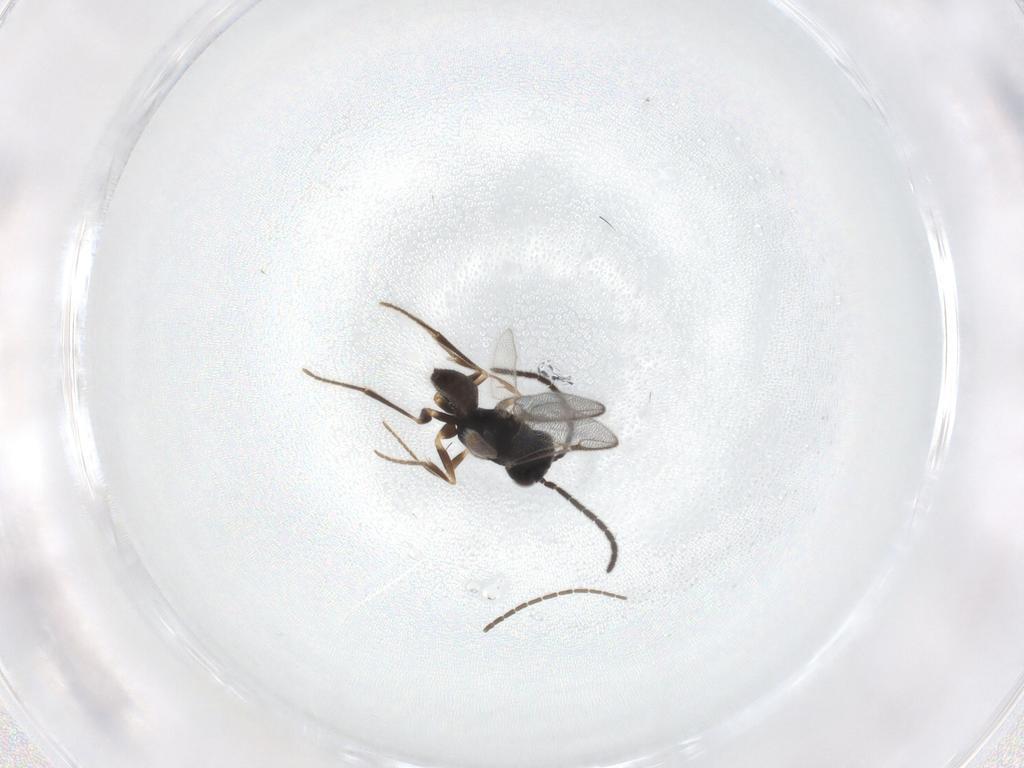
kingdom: Animalia
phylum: Arthropoda
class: Insecta
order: Hymenoptera
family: Dryinidae
